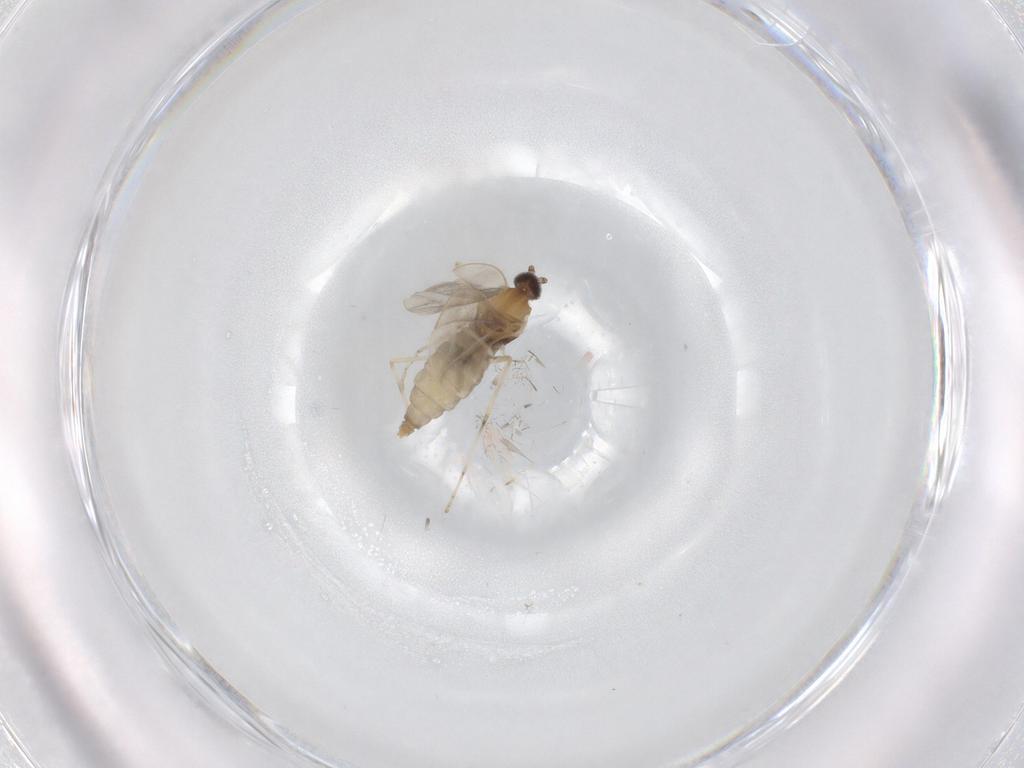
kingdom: Animalia
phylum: Arthropoda
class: Insecta
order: Diptera
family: Cecidomyiidae
